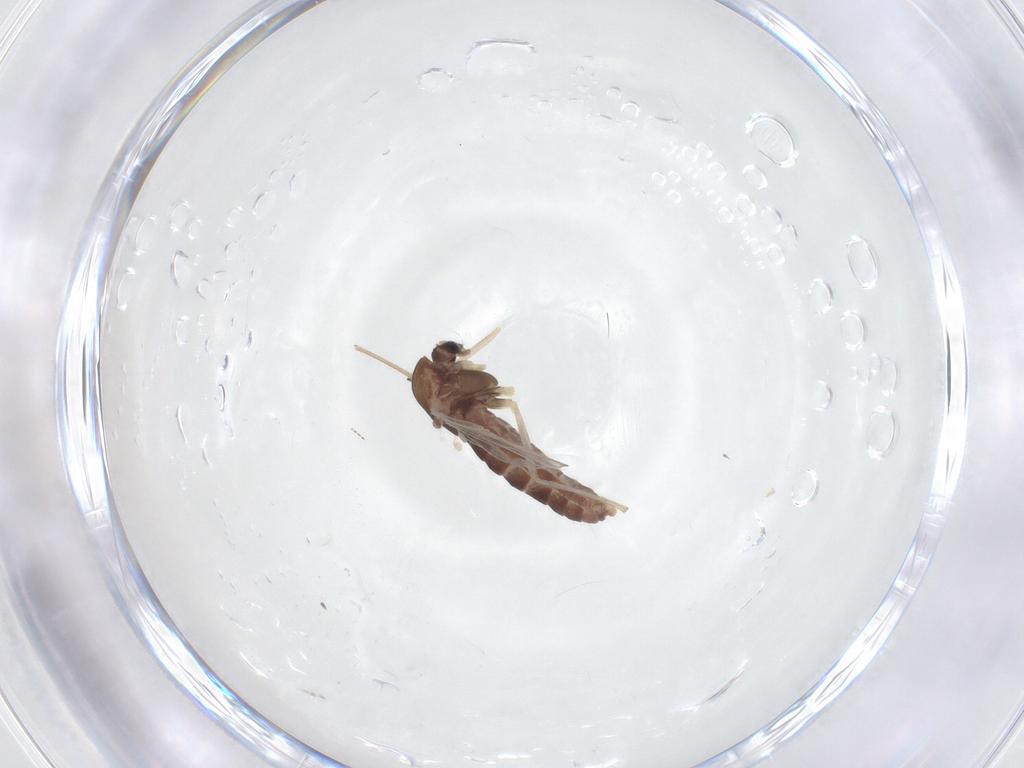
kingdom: Animalia
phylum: Arthropoda
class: Insecta
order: Diptera
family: Chironomidae
